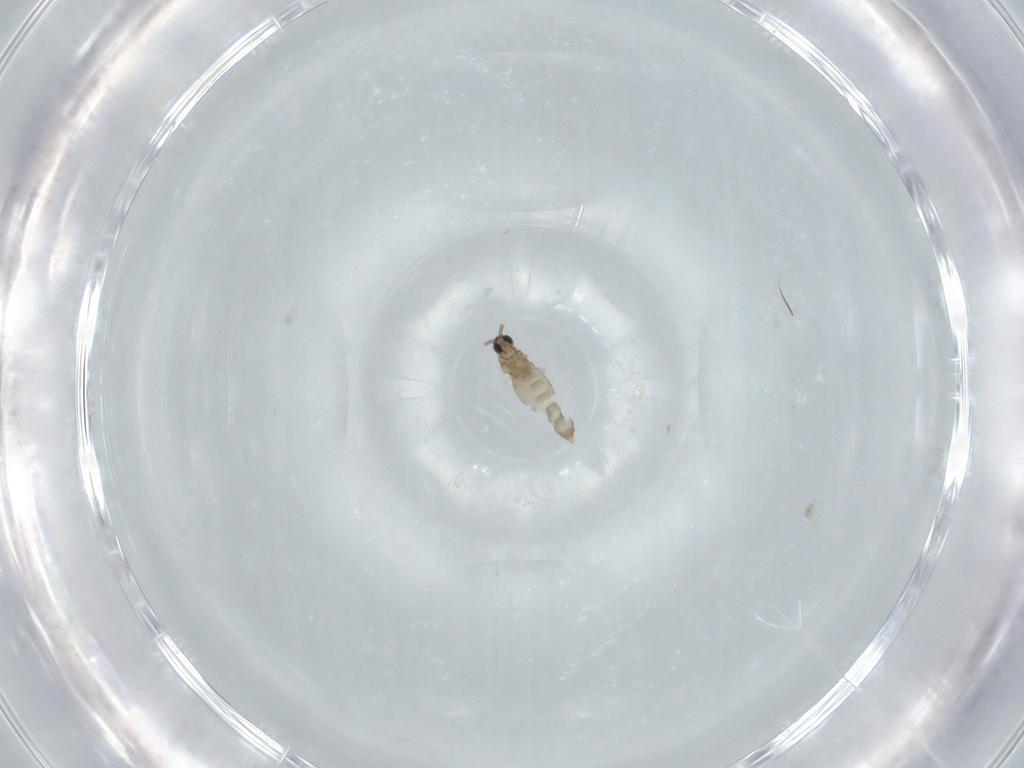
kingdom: Animalia
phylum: Arthropoda
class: Insecta
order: Diptera
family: Cecidomyiidae
